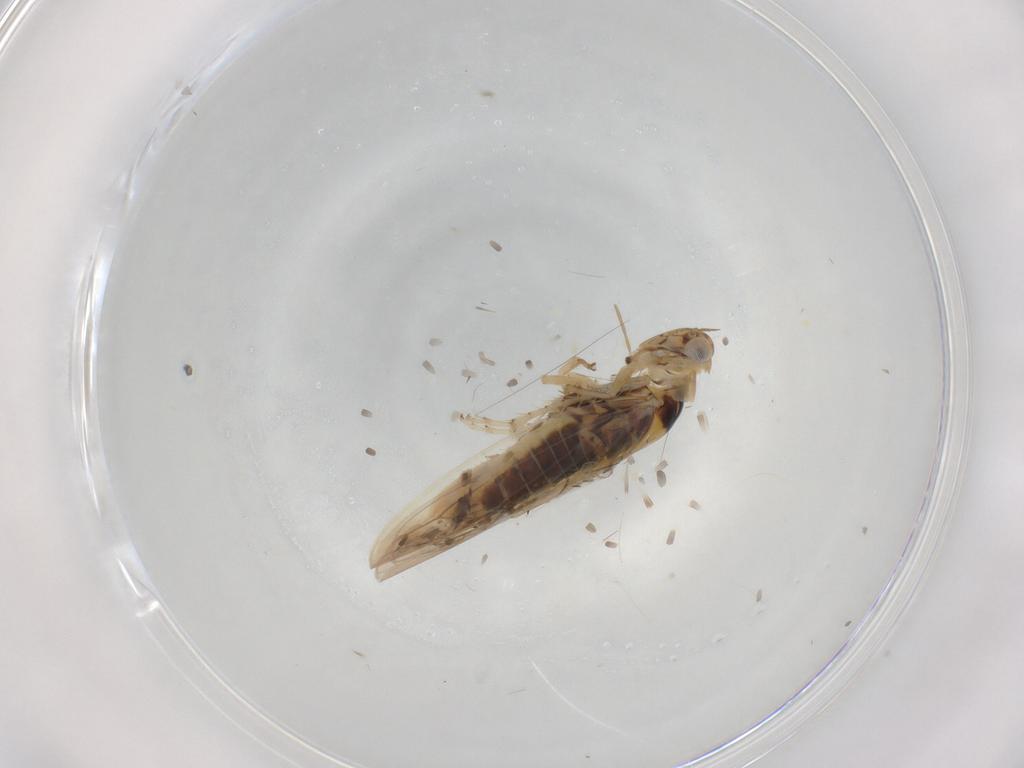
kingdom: Animalia
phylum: Arthropoda
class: Insecta
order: Hemiptera
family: Cicadellidae
